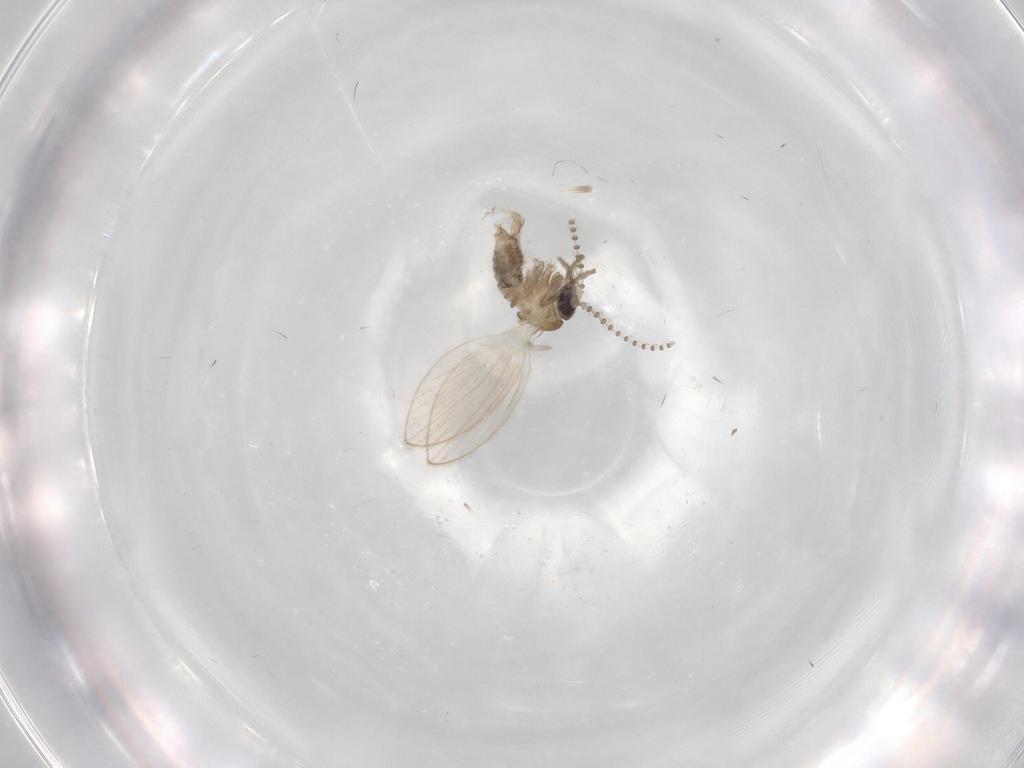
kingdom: Animalia
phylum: Arthropoda
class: Insecta
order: Diptera
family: Psychodidae
